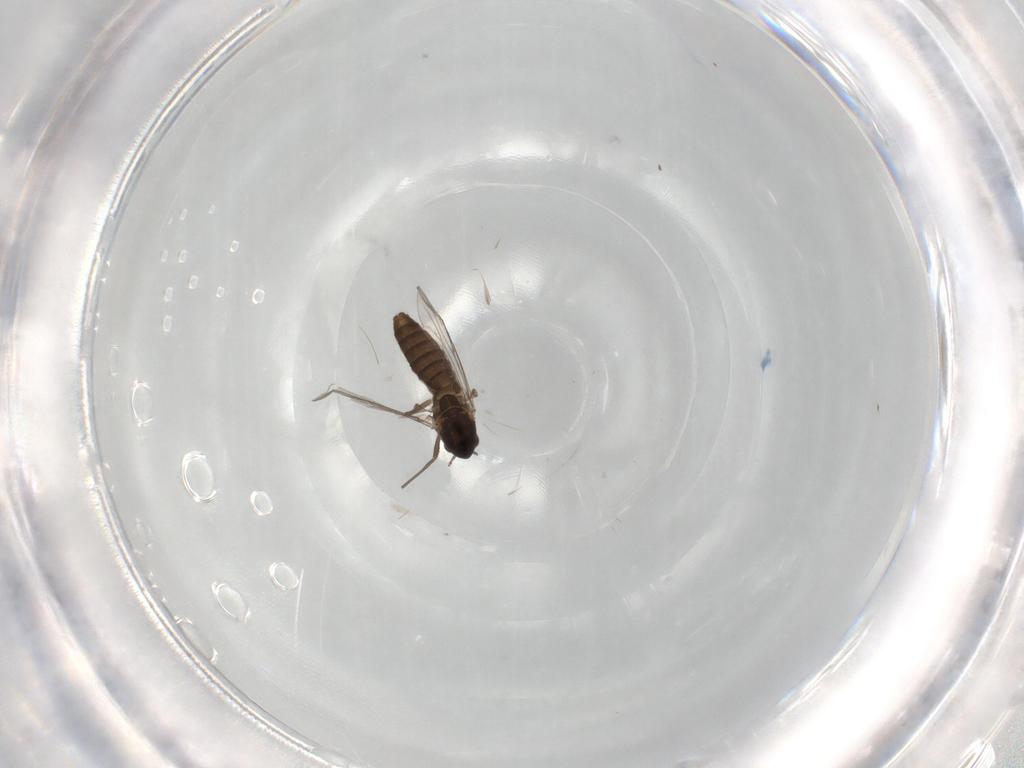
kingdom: Animalia
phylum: Arthropoda
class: Insecta
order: Diptera
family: Chironomidae
